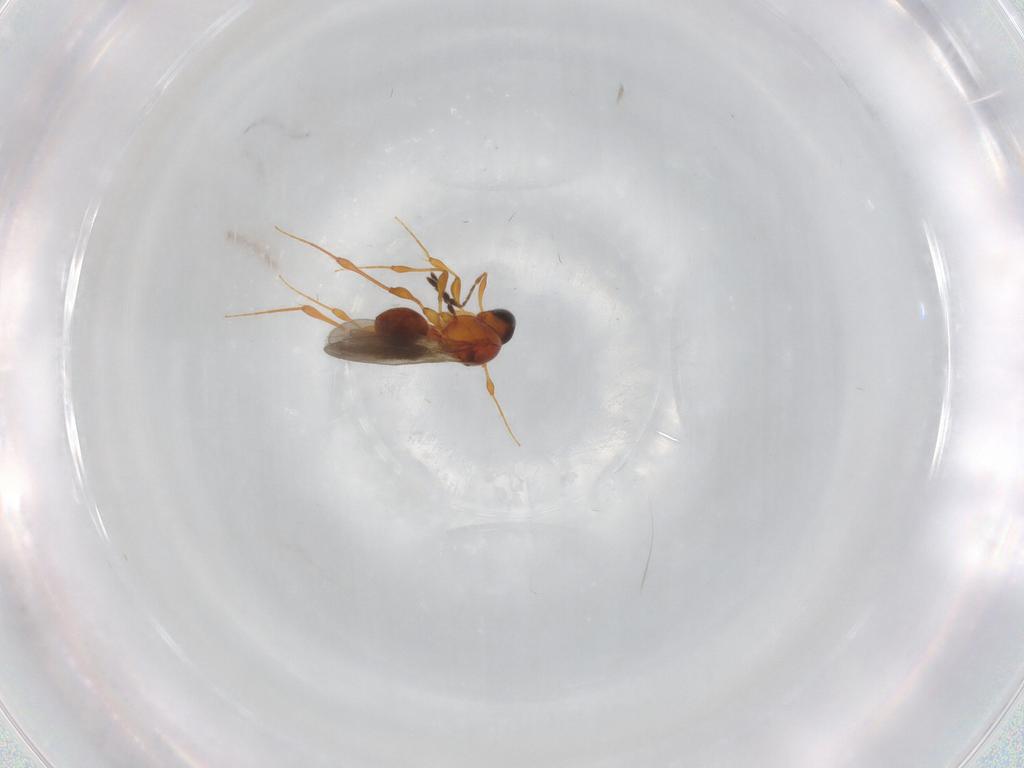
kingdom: Animalia
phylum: Arthropoda
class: Insecta
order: Hymenoptera
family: Platygastridae
